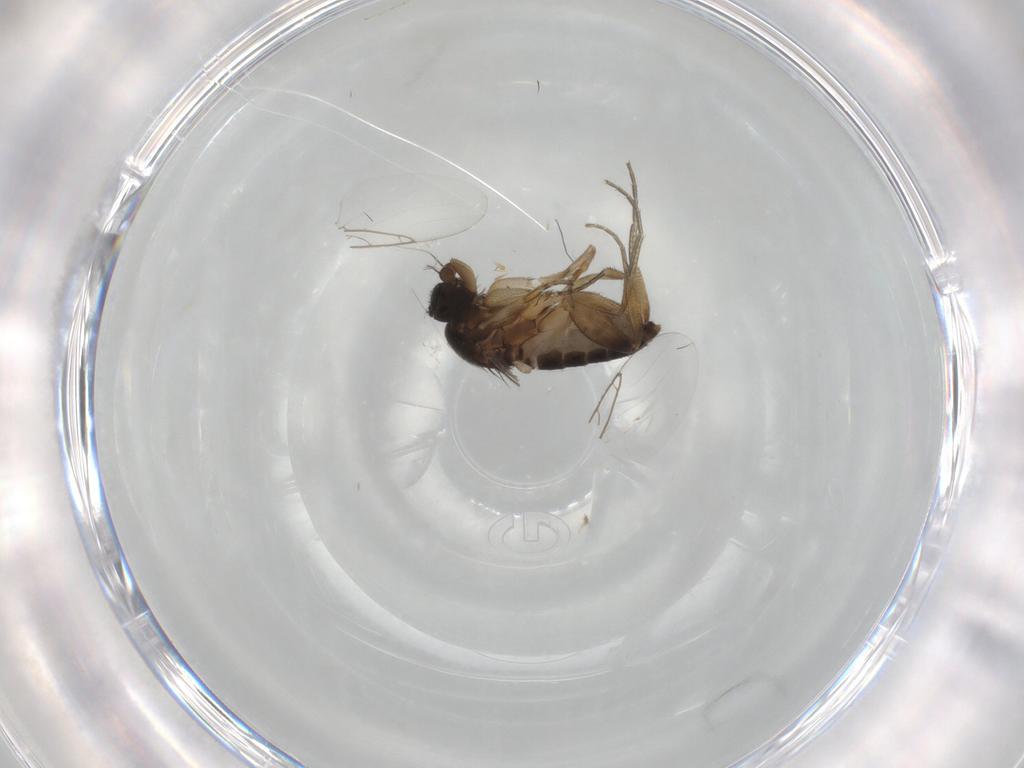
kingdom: Animalia
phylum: Arthropoda
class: Insecta
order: Diptera
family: Phoridae
